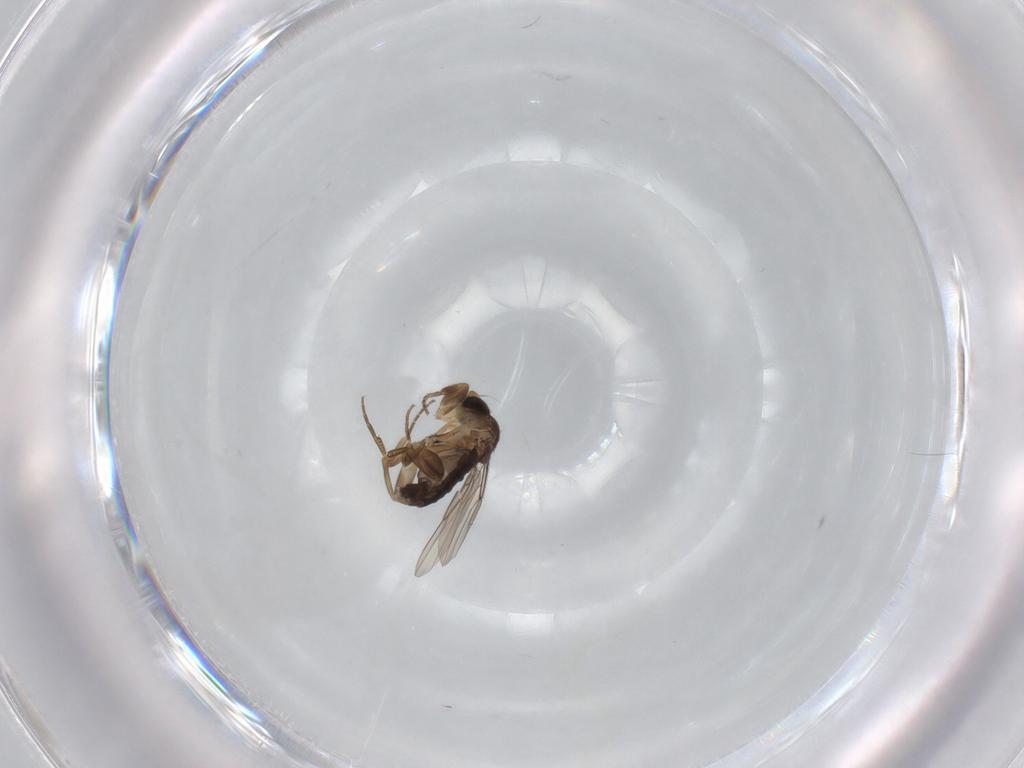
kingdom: Animalia
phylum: Arthropoda
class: Insecta
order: Diptera
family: Phoridae
